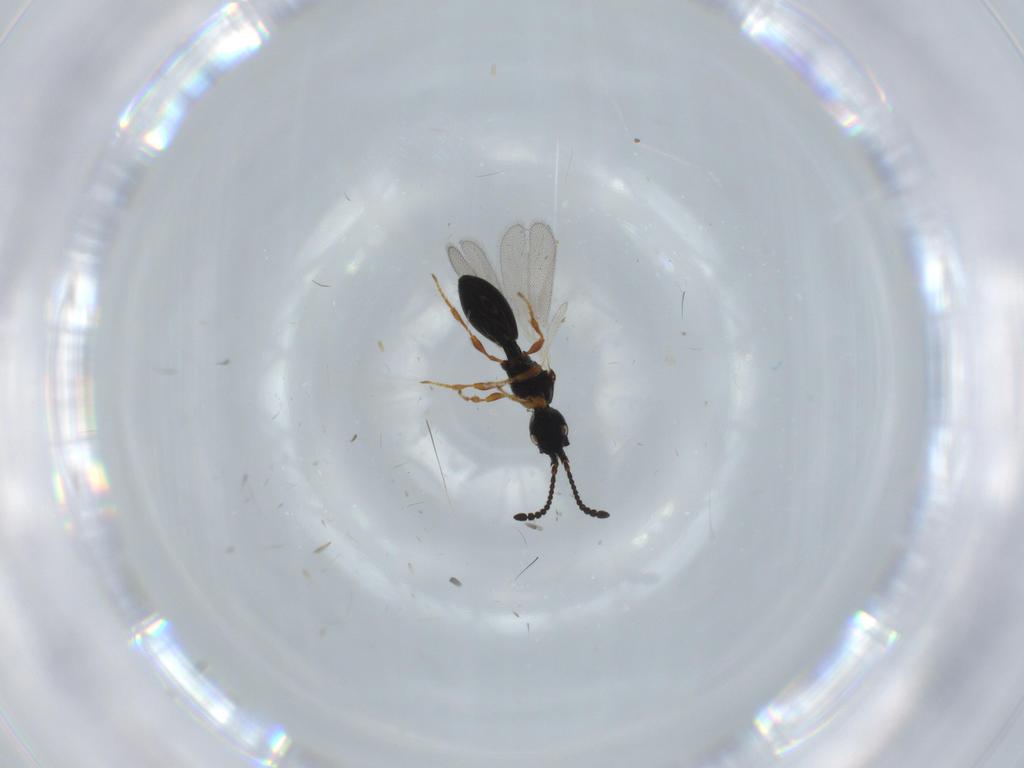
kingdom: Animalia
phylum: Arthropoda
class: Insecta
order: Hymenoptera
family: Diapriidae
